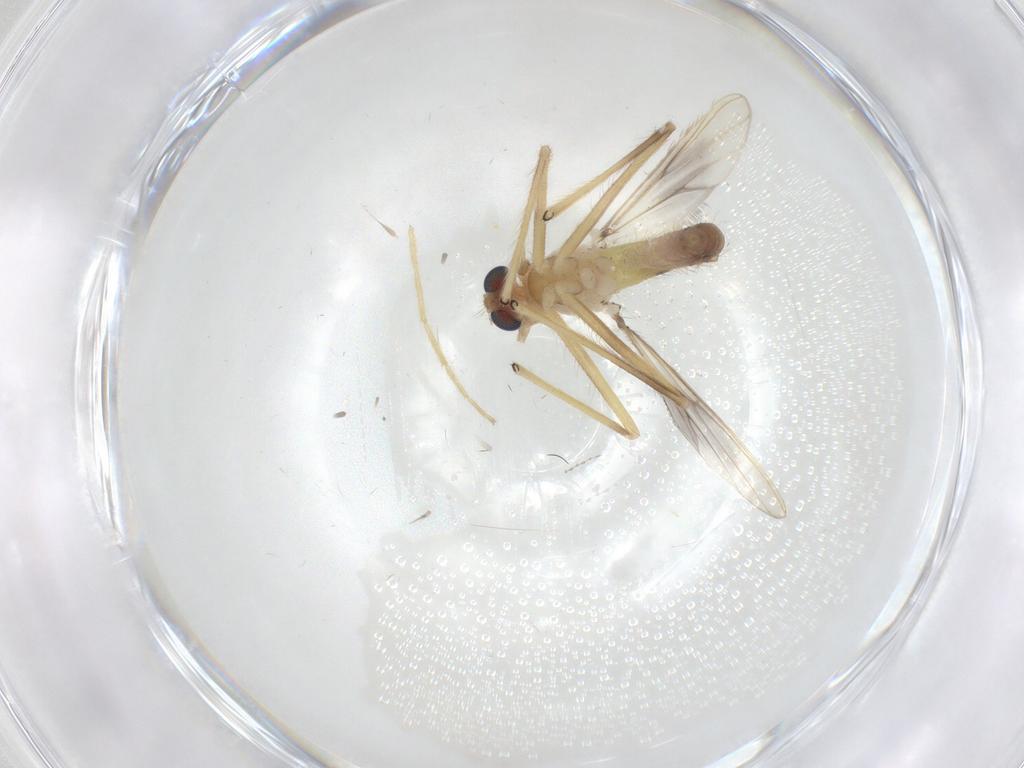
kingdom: Animalia
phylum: Arthropoda
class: Insecta
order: Diptera
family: Chironomidae
